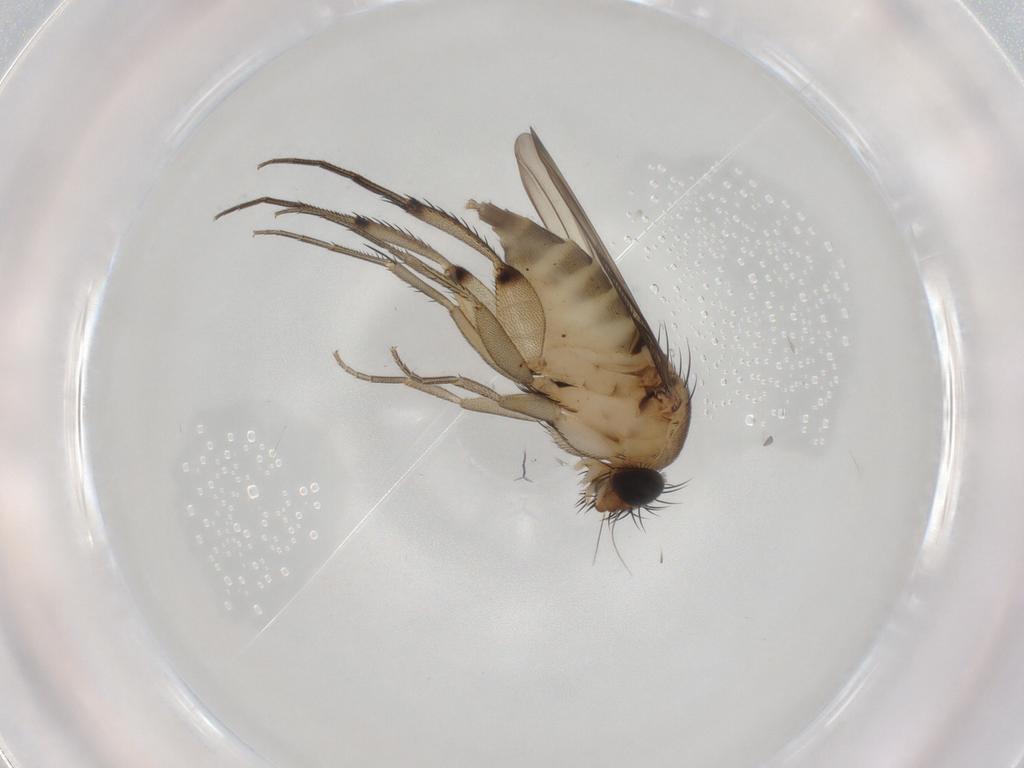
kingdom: Animalia
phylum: Arthropoda
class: Insecta
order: Diptera
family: Phoridae
